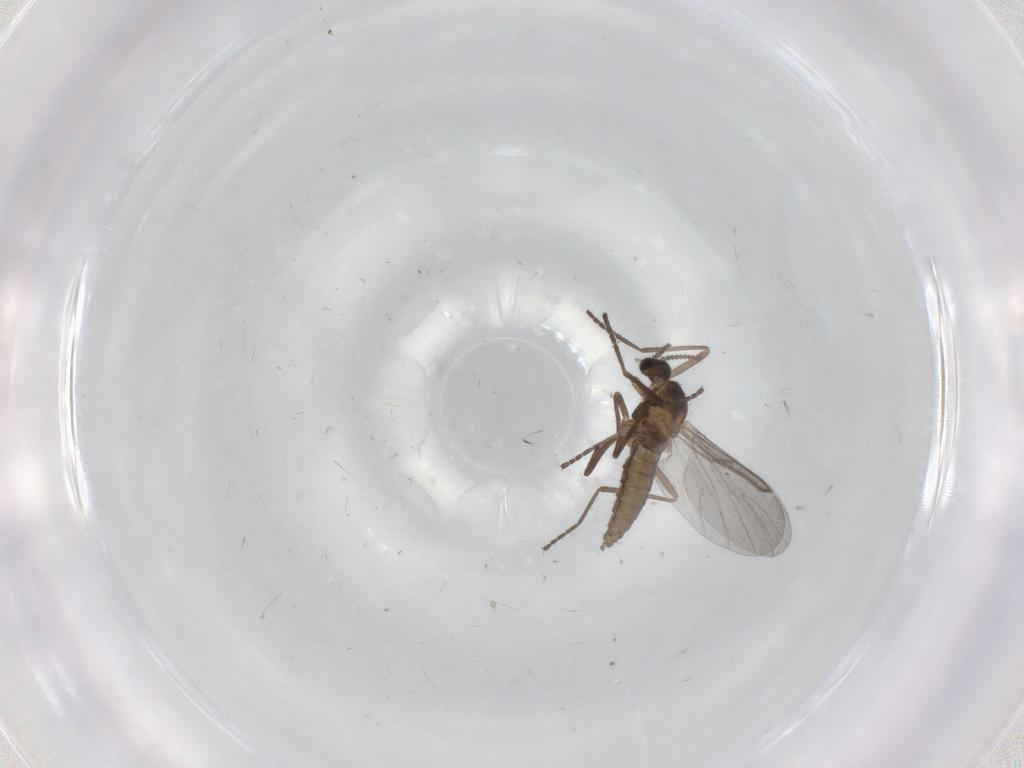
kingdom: Animalia
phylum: Arthropoda
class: Insecta
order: Diptera
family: Cecidomyiidae
